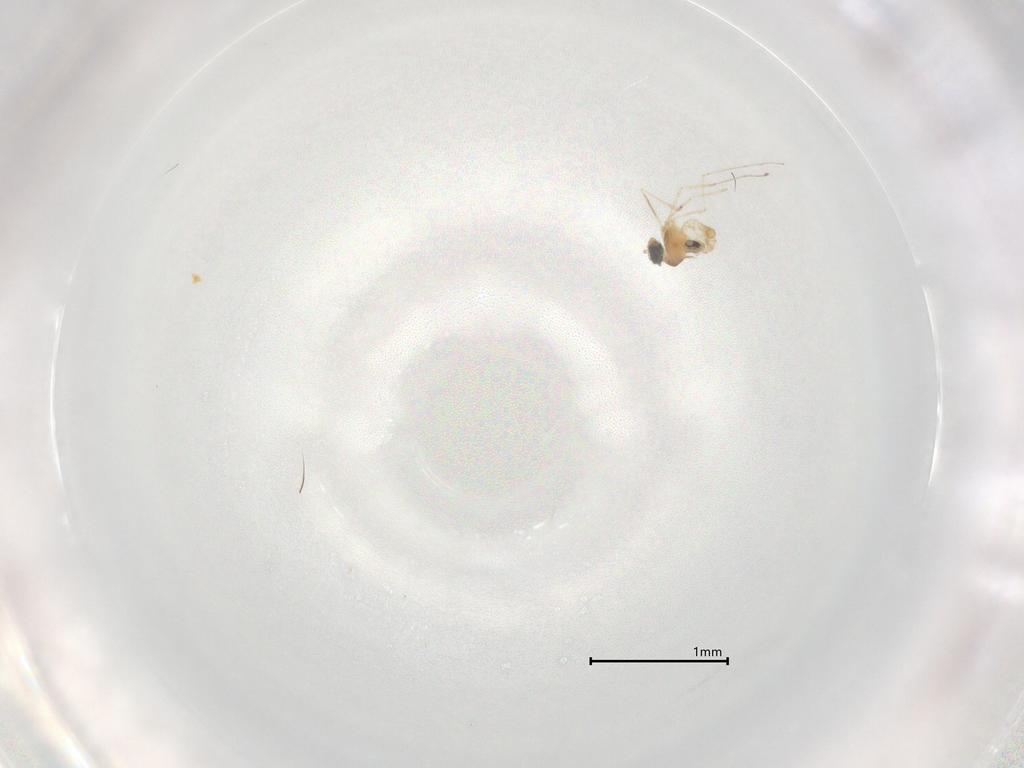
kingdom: Animalia
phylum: Arthropoda
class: Insecta
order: Diptera
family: Cecidomyiidae
